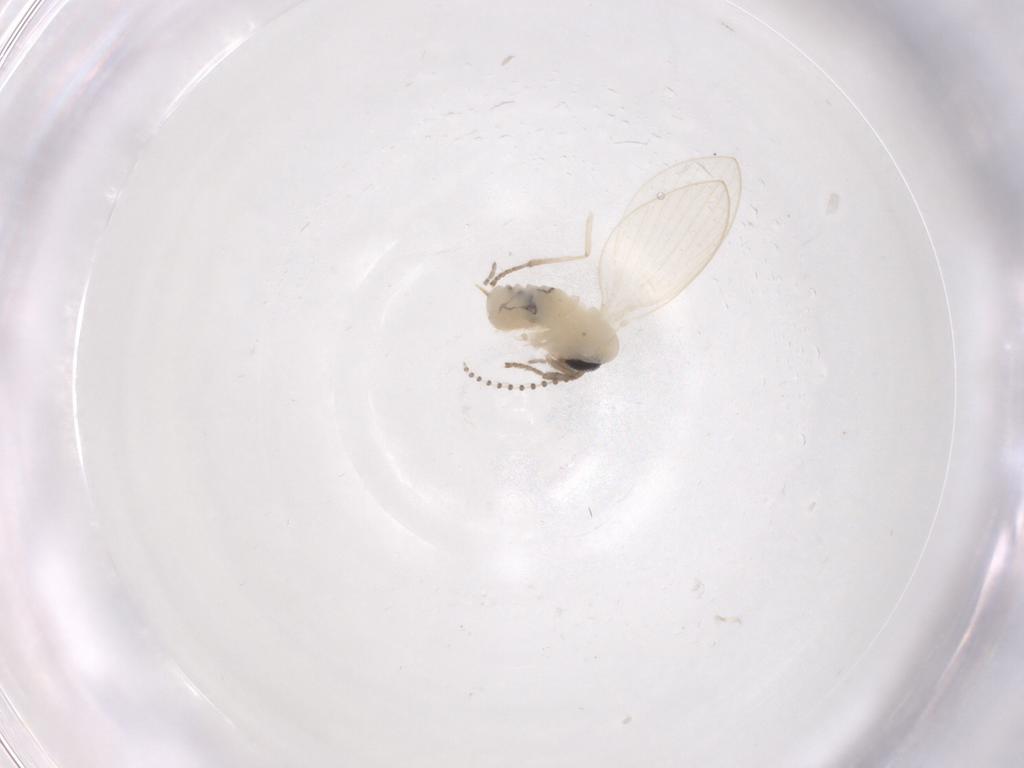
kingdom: Animalia
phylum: Arthropoda
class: Insecta
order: Diptera
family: Psychodidae
